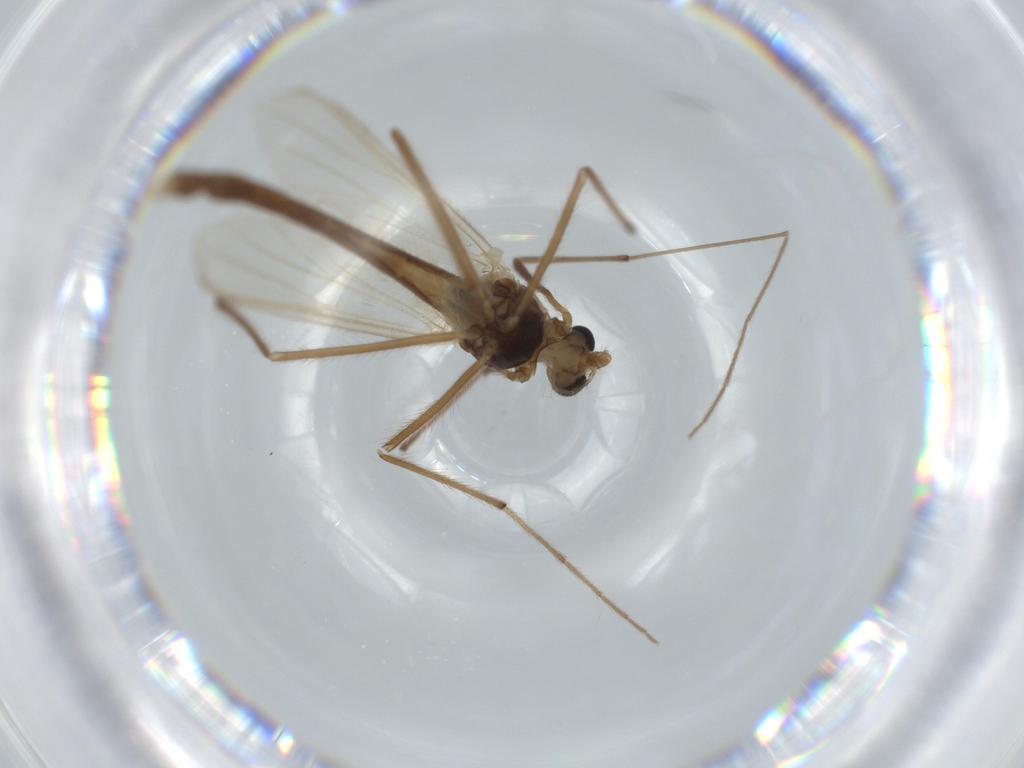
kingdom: Animalia
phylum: Arthropoda
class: Insecta
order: Diptera
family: Chironomidae
